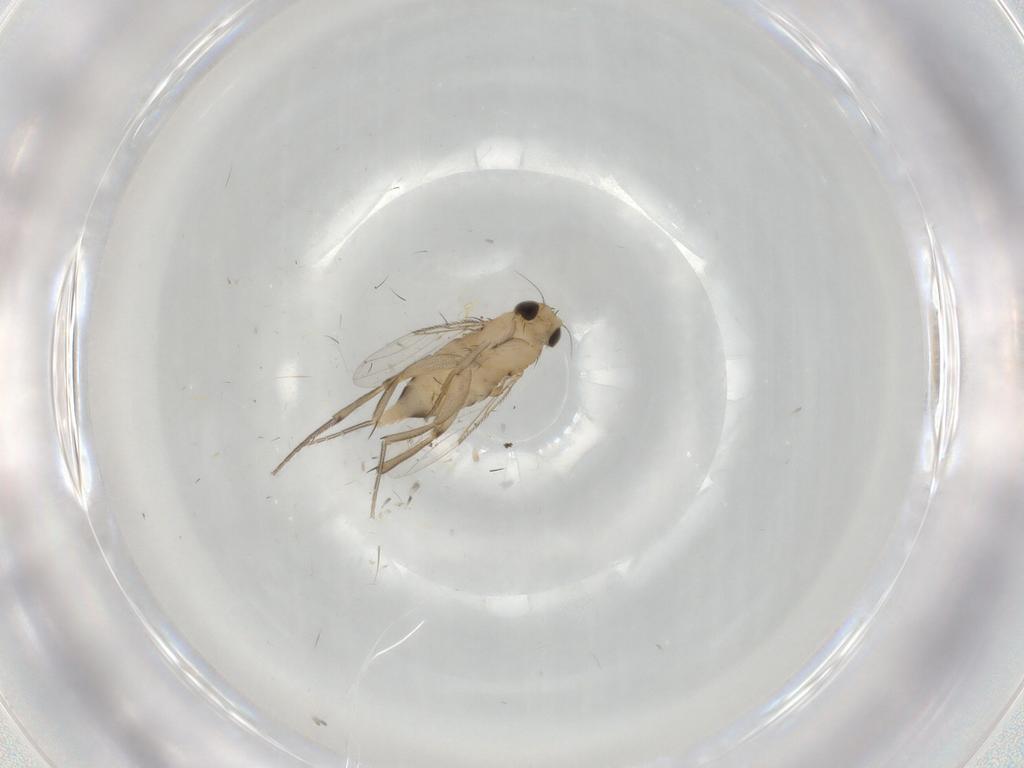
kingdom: Animalia
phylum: Arthropoda
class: Insecta
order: Diptera
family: Phoridae
